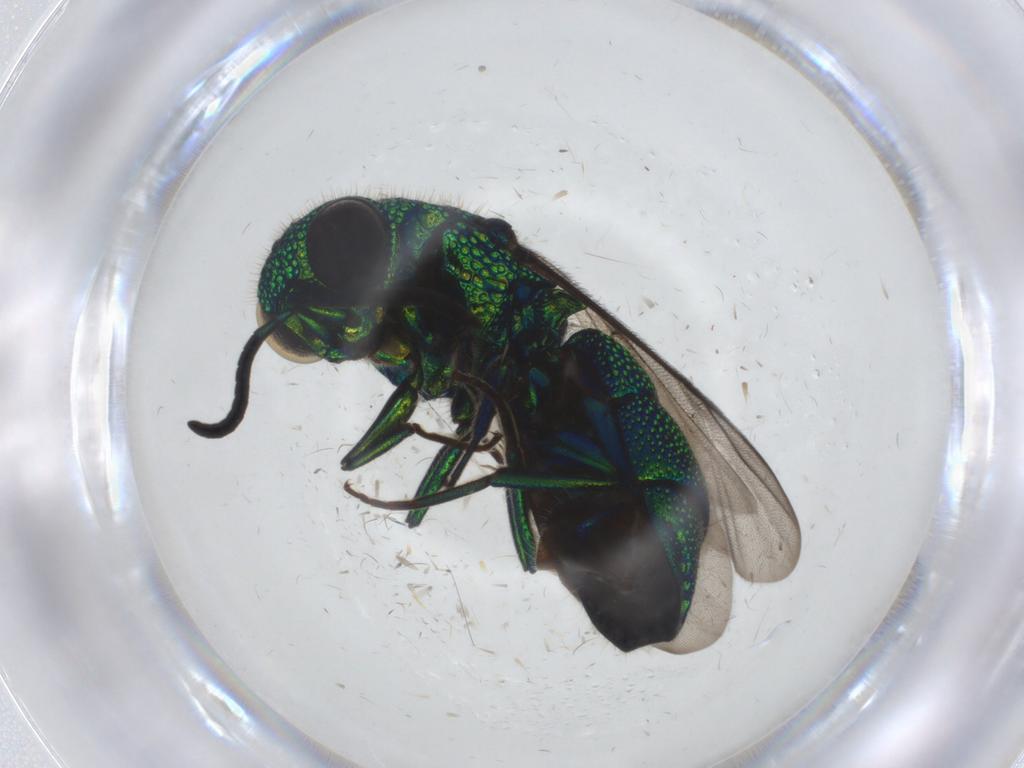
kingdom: Animalia
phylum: Arthropoda
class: Insecta
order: Hymenoptera
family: Chrysididae
